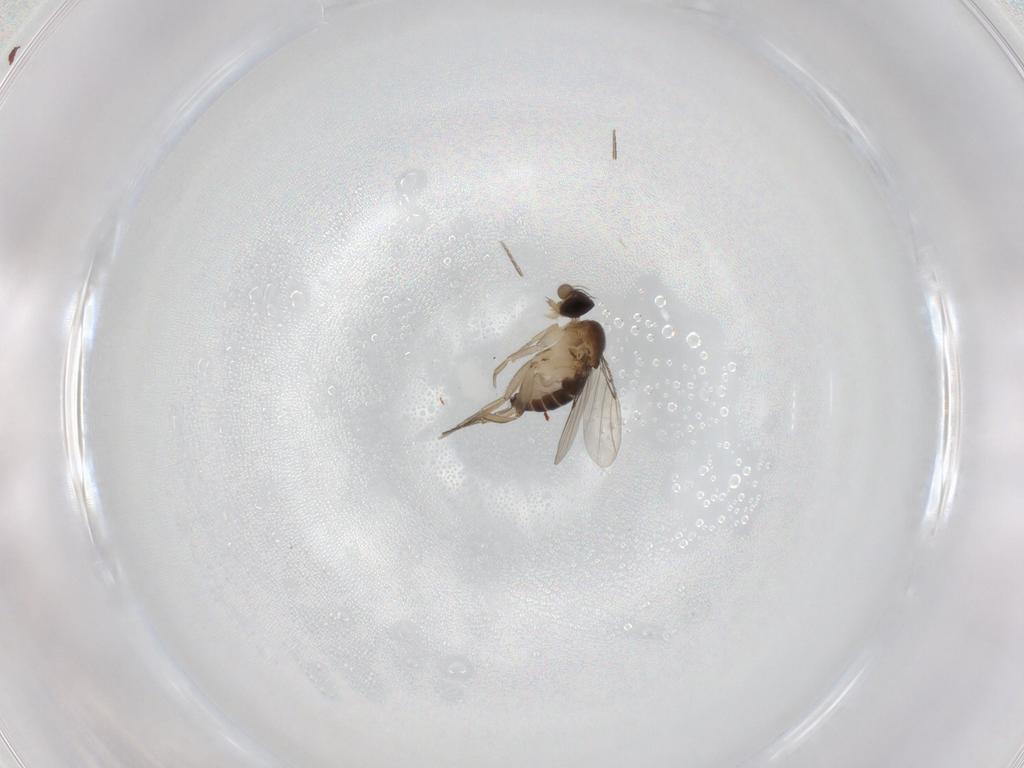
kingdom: Animalia
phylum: Arthropoda
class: Insecta
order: Diptera
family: Phoridae
